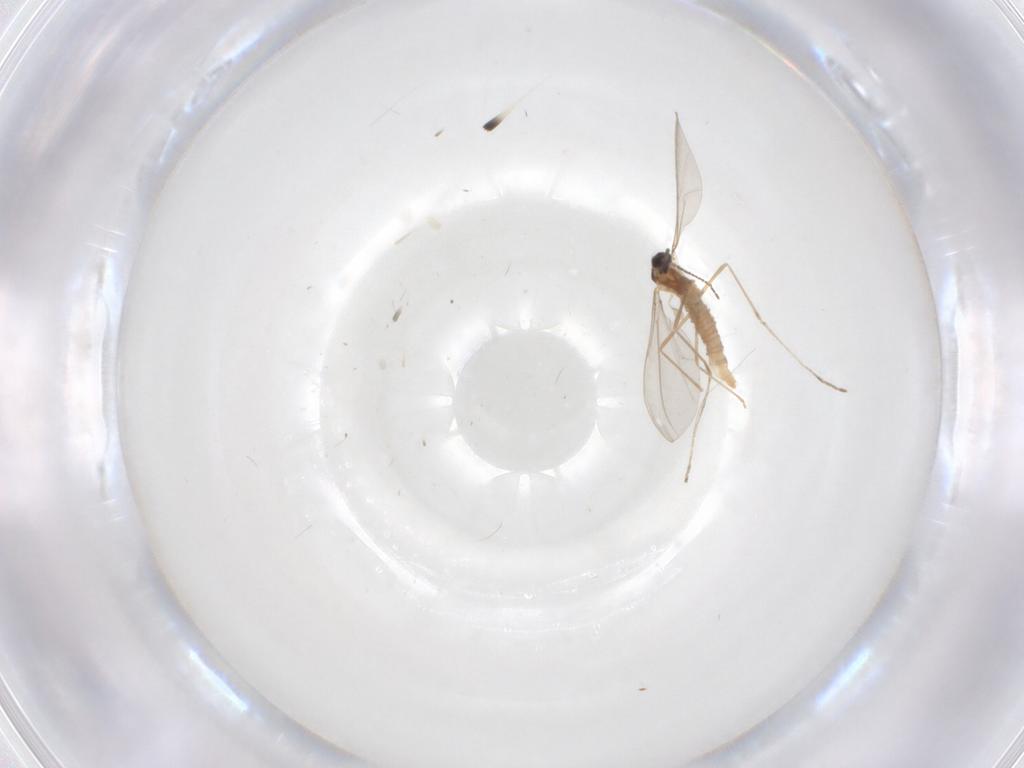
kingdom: Animalia
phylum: Arthropoda
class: Insecta
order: Diptera
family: Cecidomyiidae
